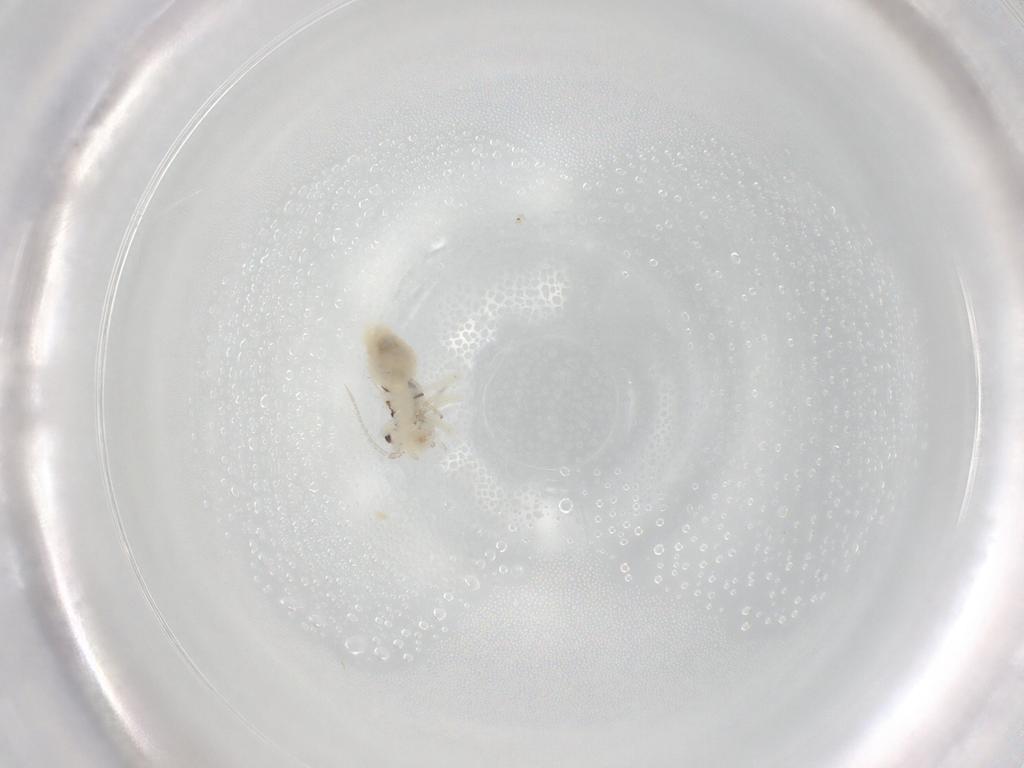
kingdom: Animalia
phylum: Arthropoda
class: Insecta
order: Psocodea
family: Caeciliusidae
